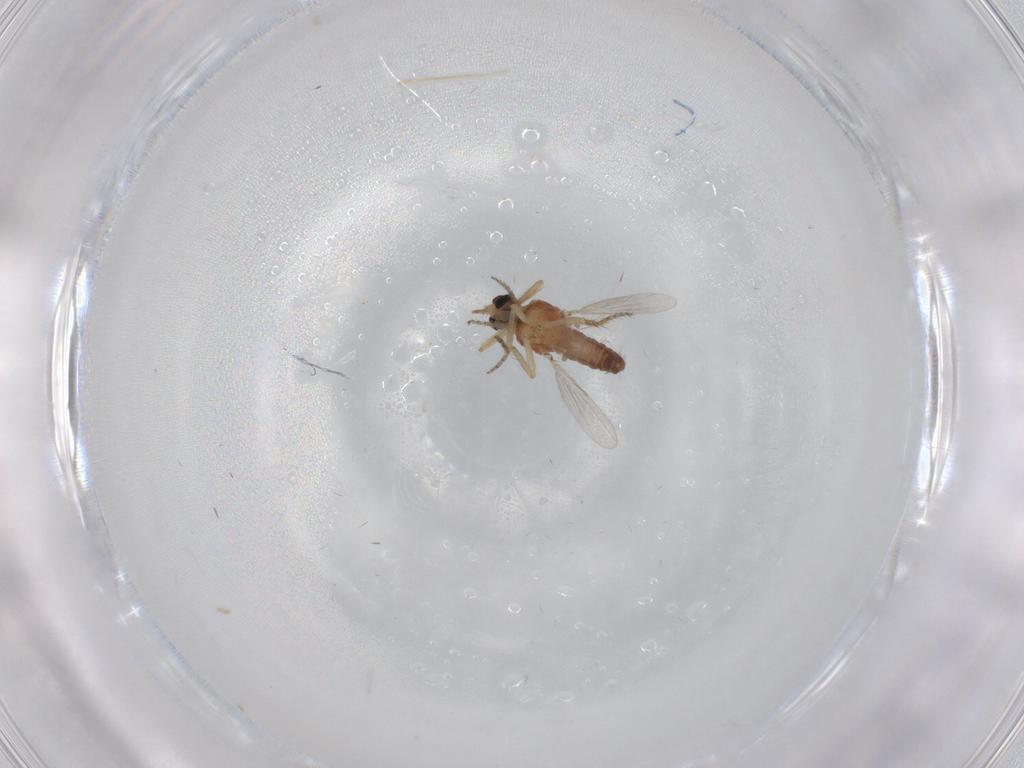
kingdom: Animalia
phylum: Arthropoda
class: Insecta
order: Diptera
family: Ceratopogonidae
